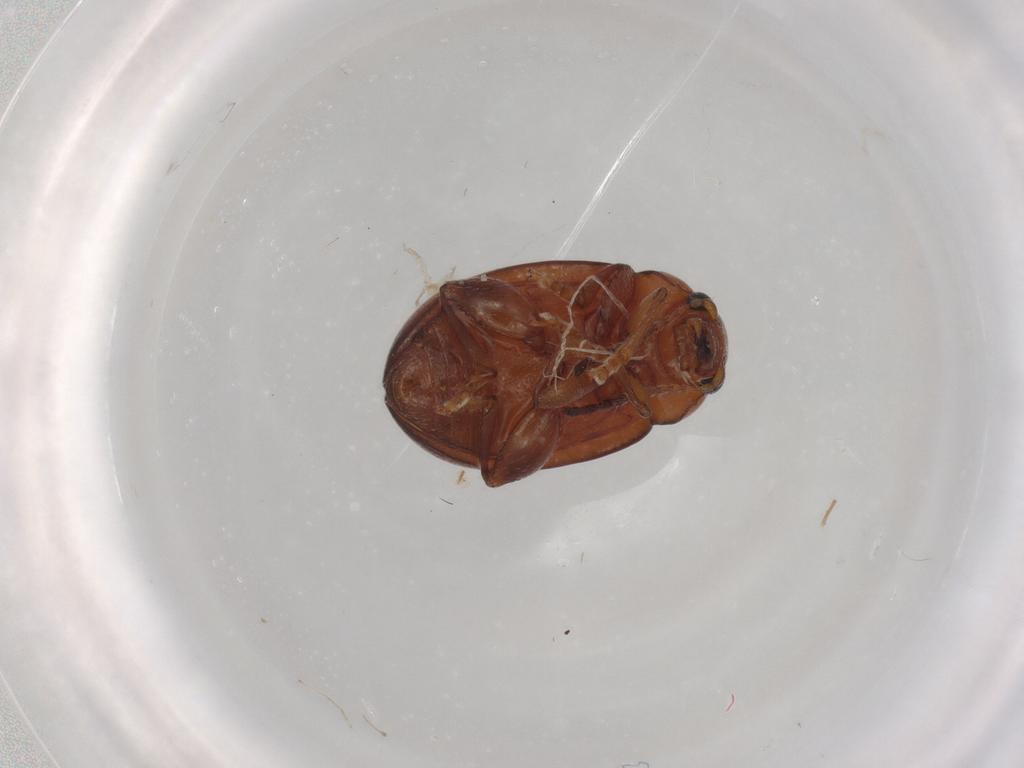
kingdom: Animalia
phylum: Arthropoda
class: Insecta
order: Coleoptera
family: Chrysomelidae
